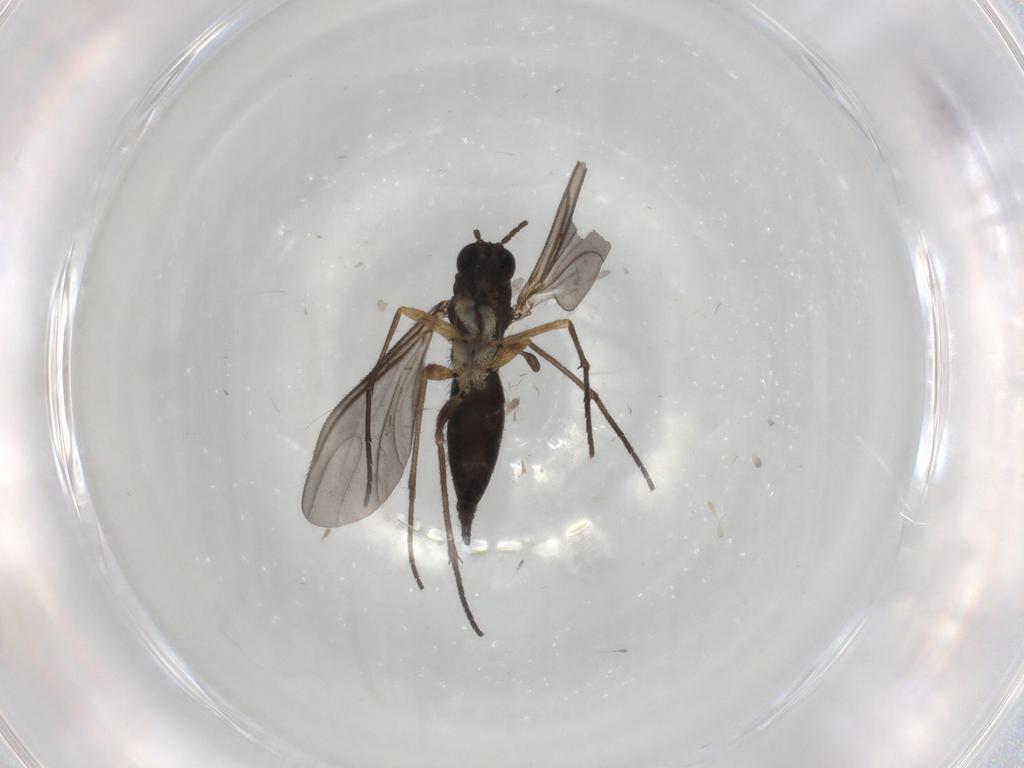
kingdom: Animalia
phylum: Arthropoda
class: Insecta
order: Diptera
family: Sciaridae
